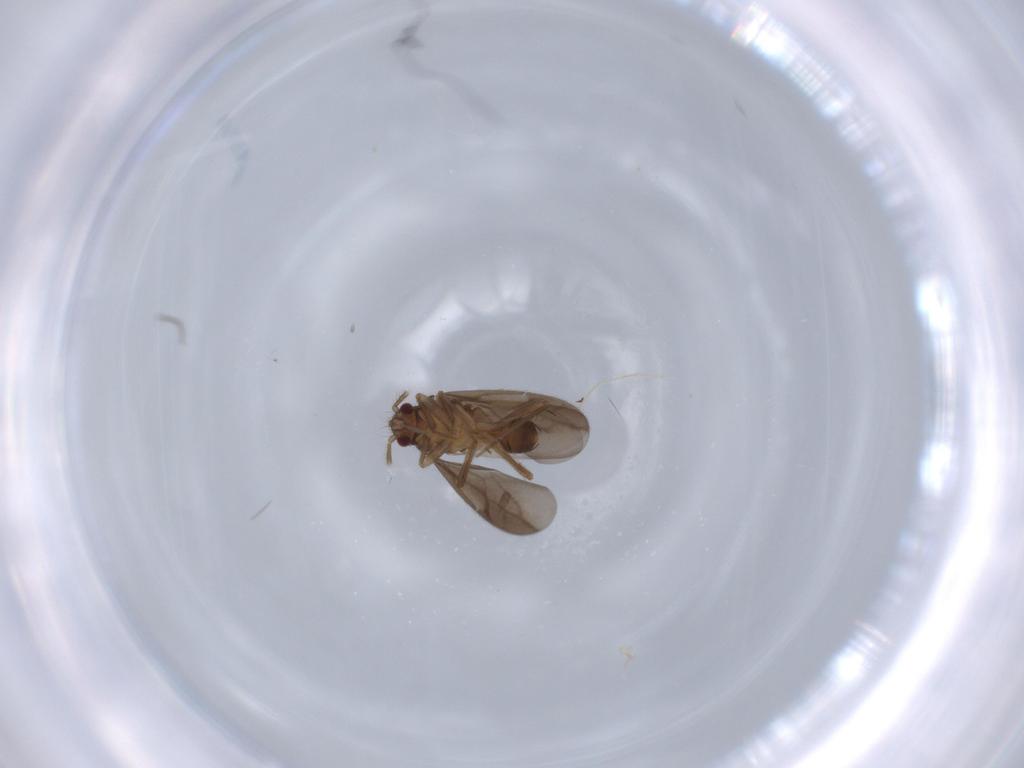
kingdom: Animalia
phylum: Arthropoda
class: Insecta
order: Hemiptera
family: Ceratocombidae
